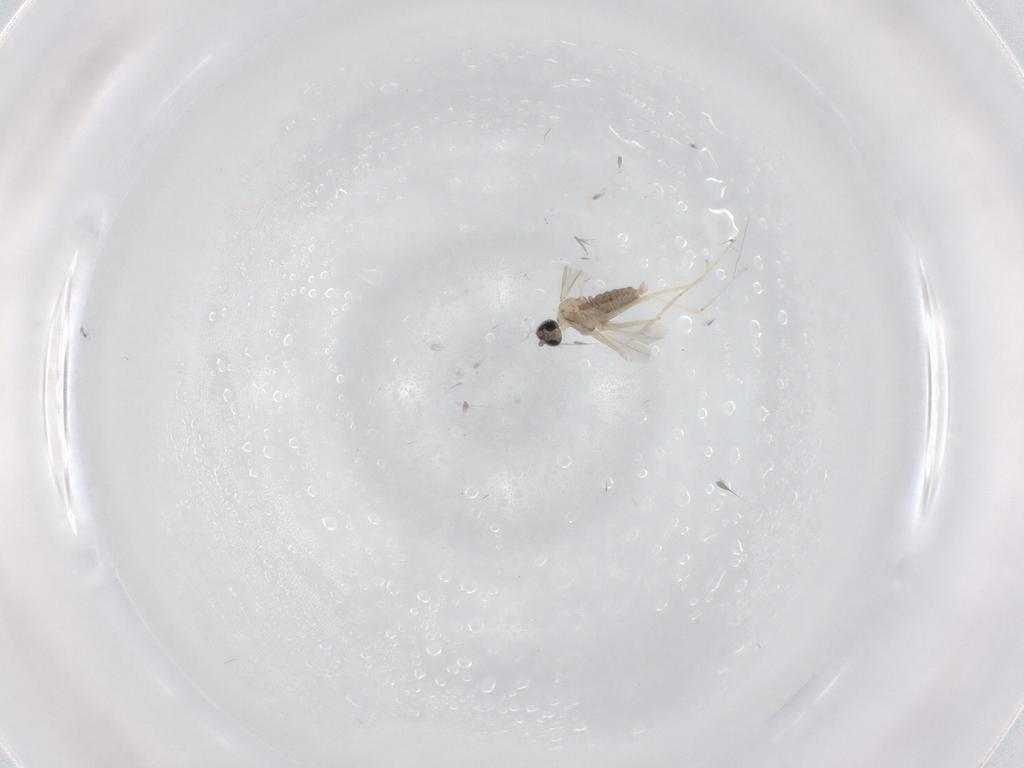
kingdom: Animalia
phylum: Arthropoda
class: Insecta
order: Diptera
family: Cecidomyiidae
